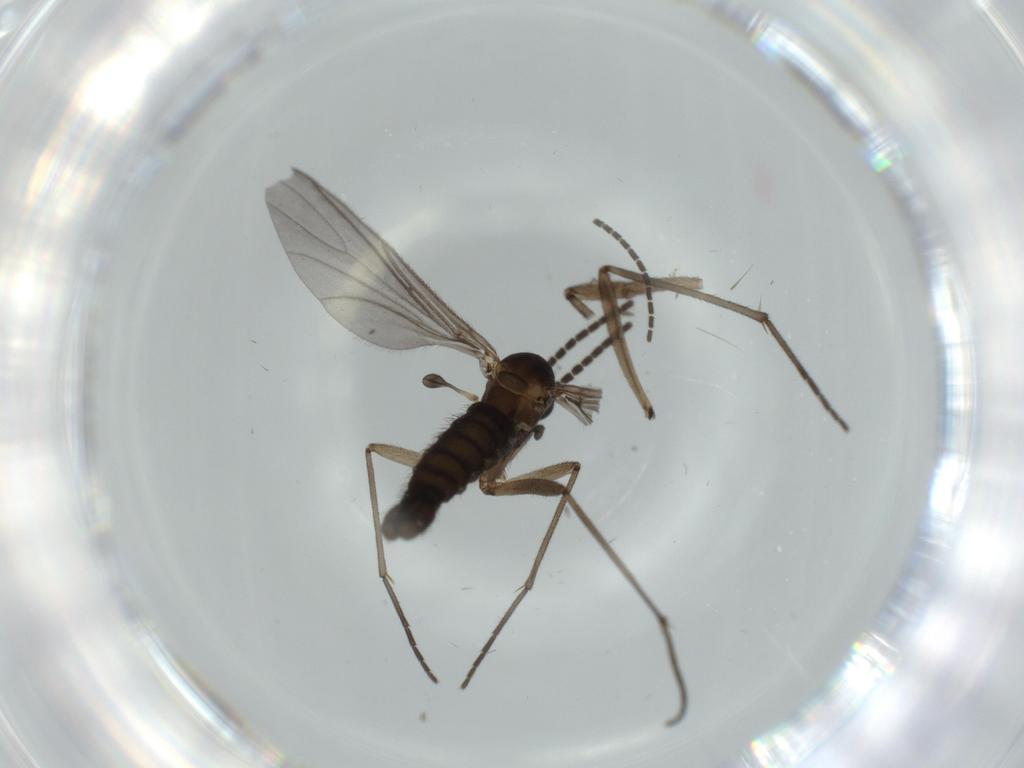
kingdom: Animalia
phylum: Arthropoda
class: Insecta
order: Diptera
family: Sciaridae
